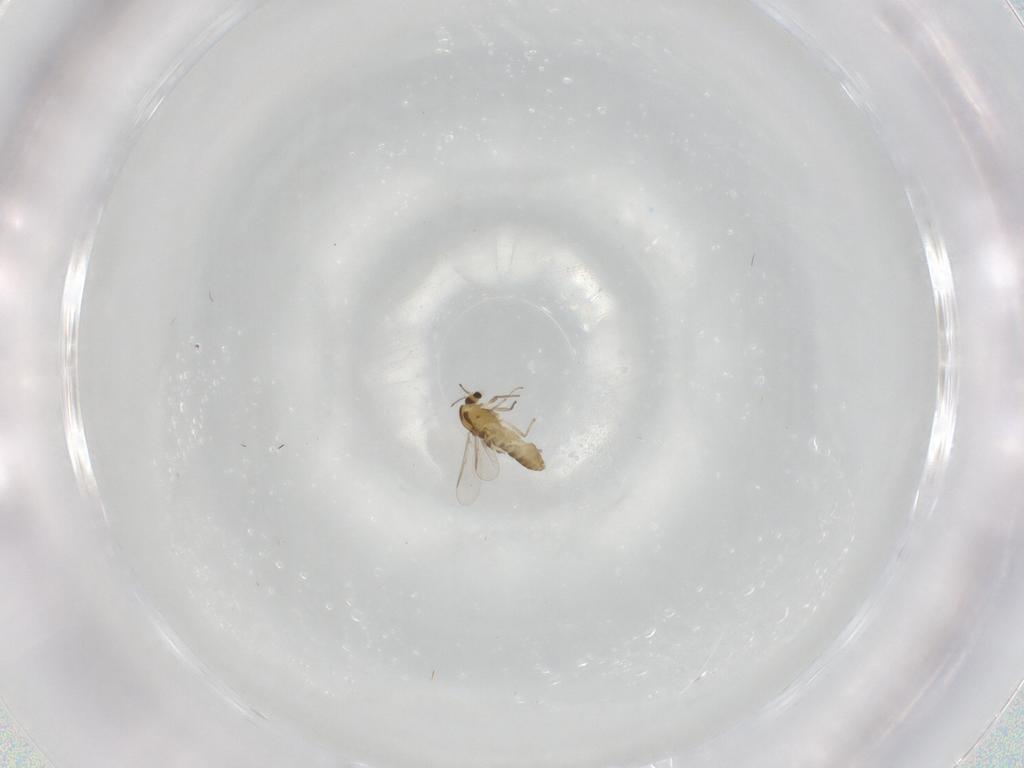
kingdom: Animalia
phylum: Arthropoda
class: Insecta
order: Diptera
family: Chironomidae
